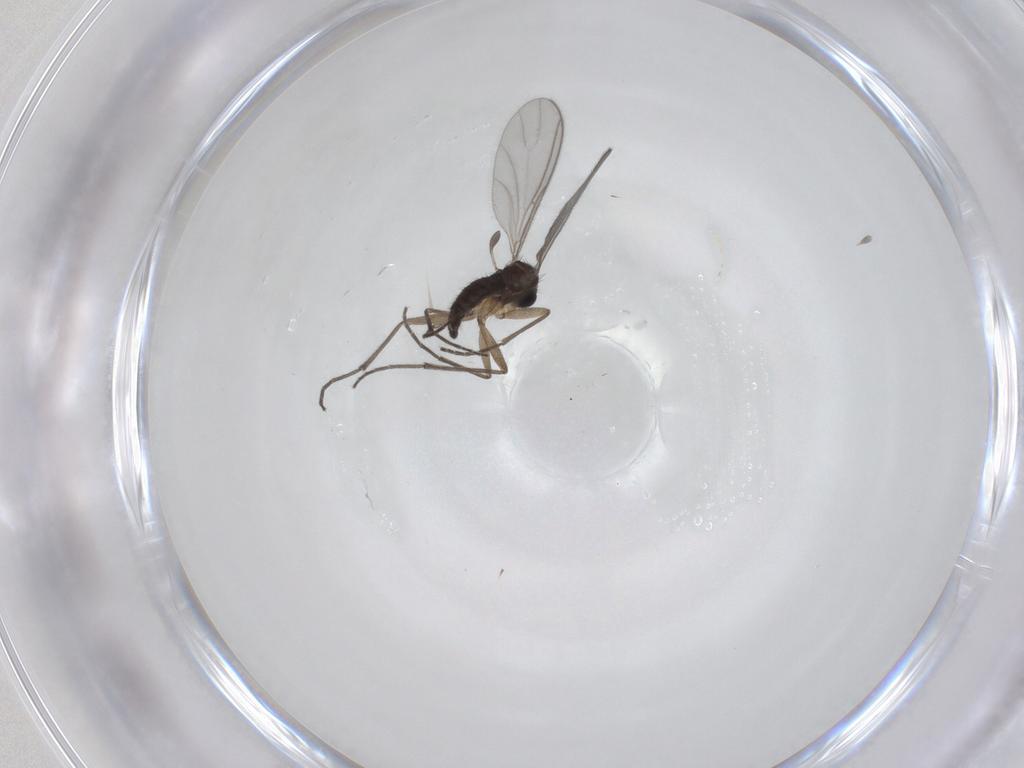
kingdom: Animalia
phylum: Arthropoda
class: Insecta
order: Diptera
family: Sciaridae
